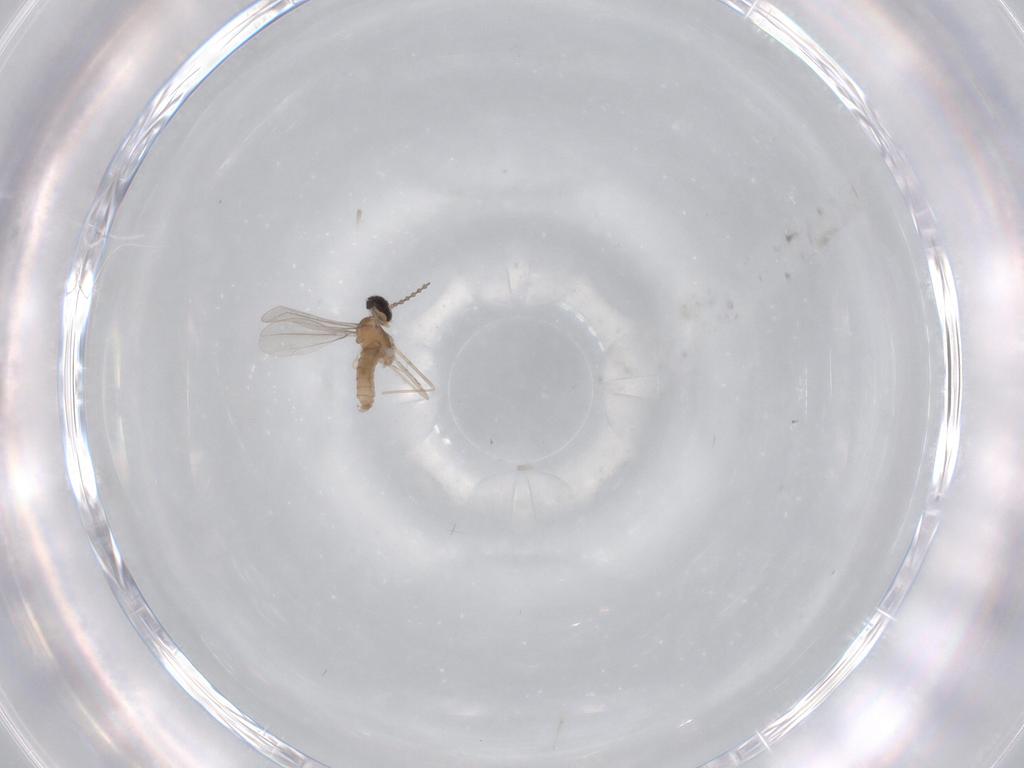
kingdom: Animalia
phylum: Arthropoda
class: Insecta
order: Diptera
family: Cecidomyiidae
